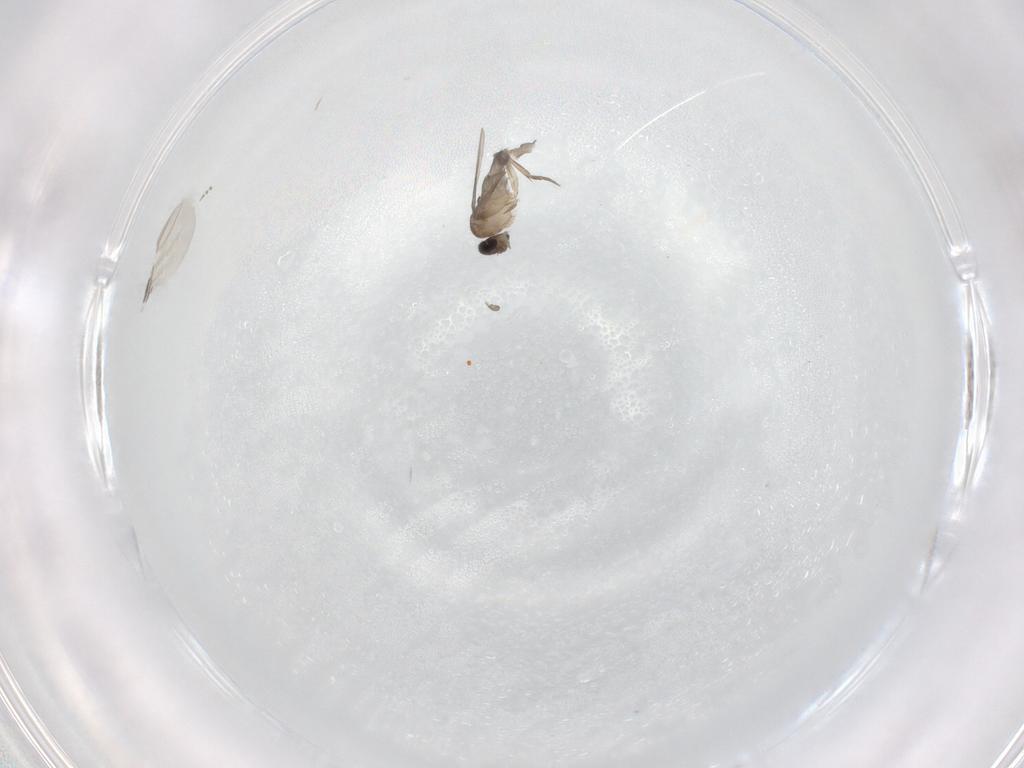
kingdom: Animalia
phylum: Arthropoda
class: Insecta
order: Diptera
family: Phoridae
